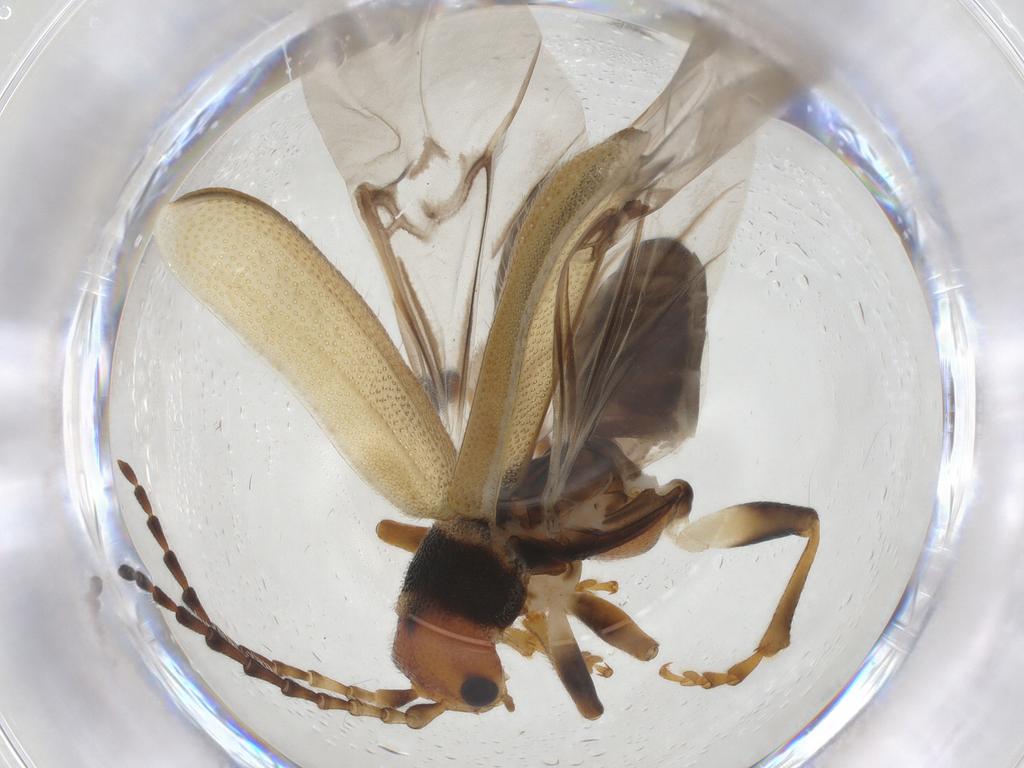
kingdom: Animalia
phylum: Arthropoda
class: Insecta
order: Coleoptera
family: Chrysomelidae
